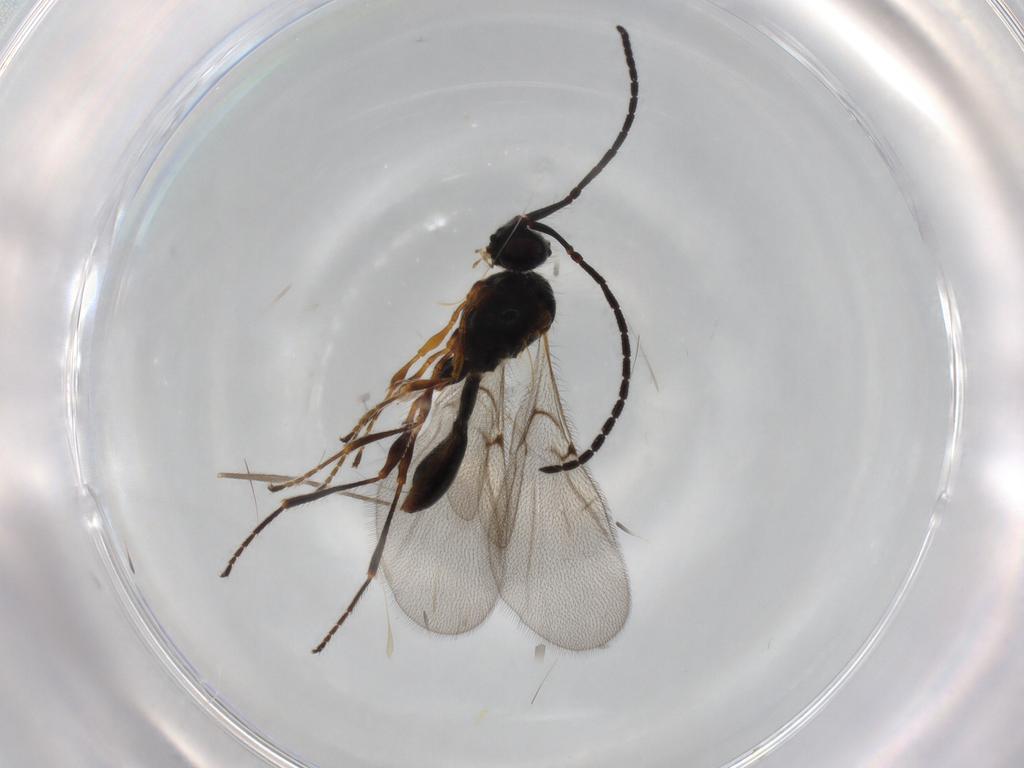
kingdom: Animalia
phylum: Arthropoda
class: Insecta
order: Hymenoptera
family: Diapriidae
